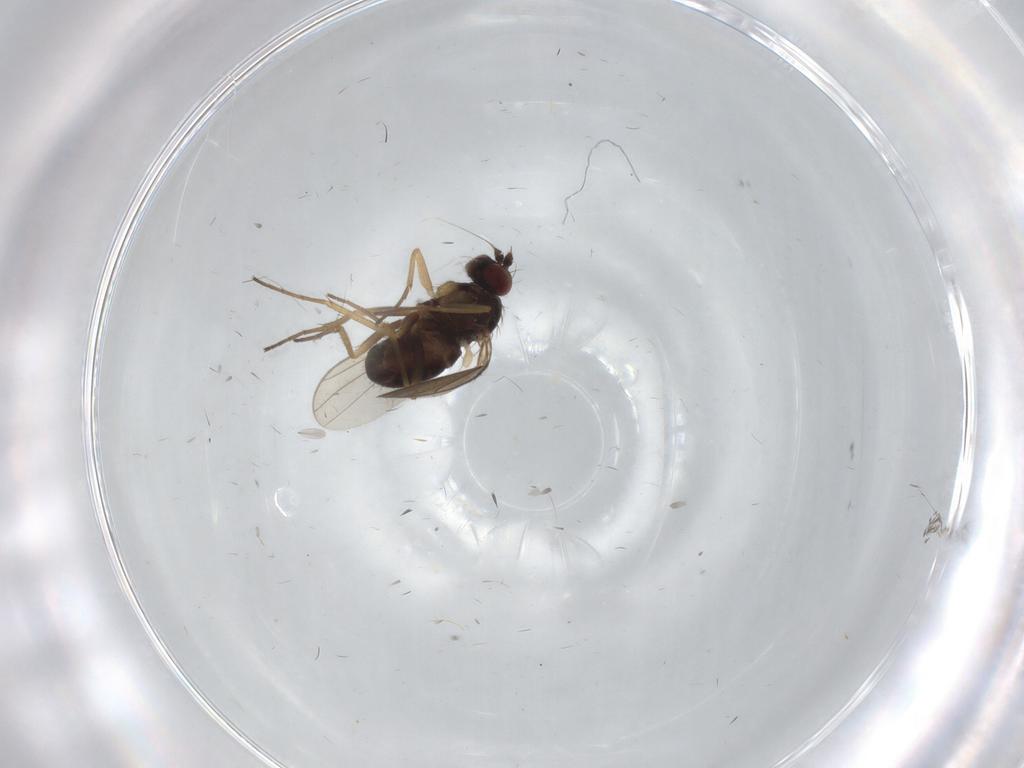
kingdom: Animalia
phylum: Arthropoda
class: Insecta
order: Diptera
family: Dolichopodidae
